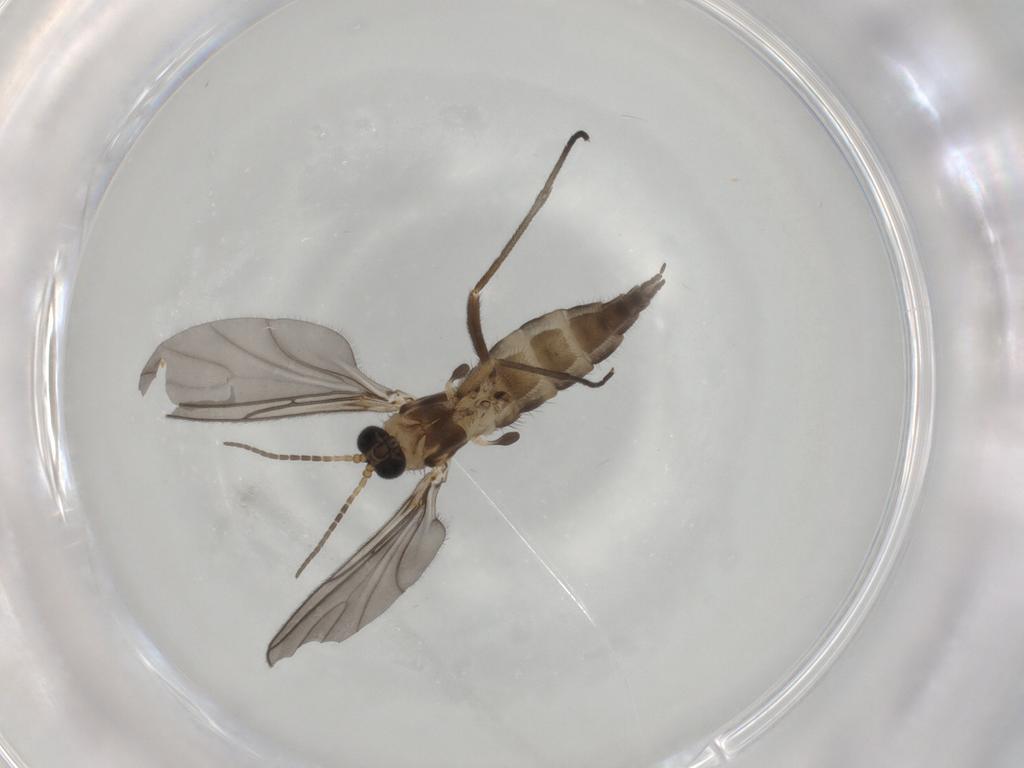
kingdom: Animalia
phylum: Arthropoda
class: Insecta
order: Diptera
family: Sciaridae
